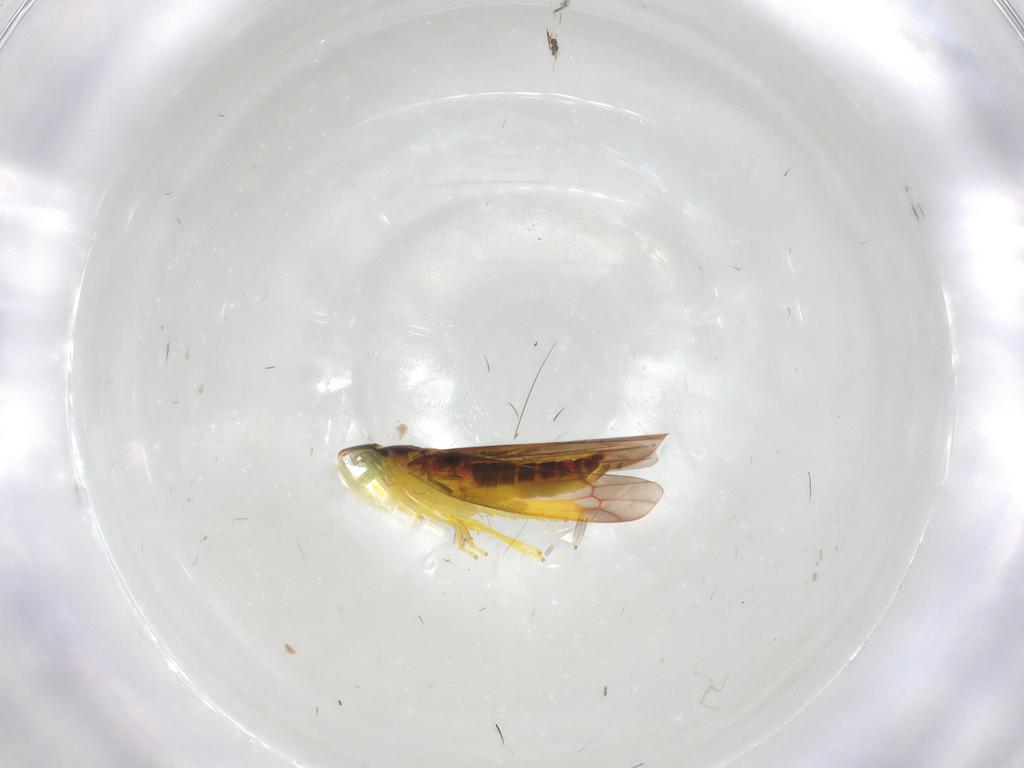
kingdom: Animalia
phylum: Arthropoda
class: Insecta
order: Hemiptera
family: Cicadellidae
